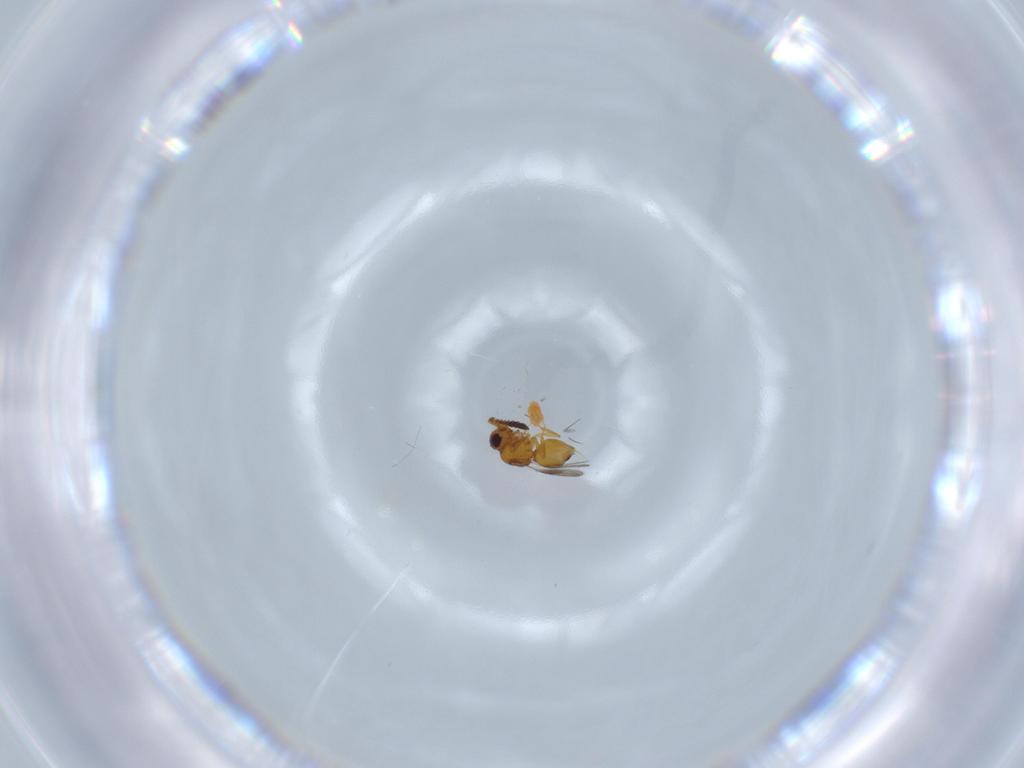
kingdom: Animalia
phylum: Arthropoda
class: Insecta
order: Hymenoptera
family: Ceraphronidae
